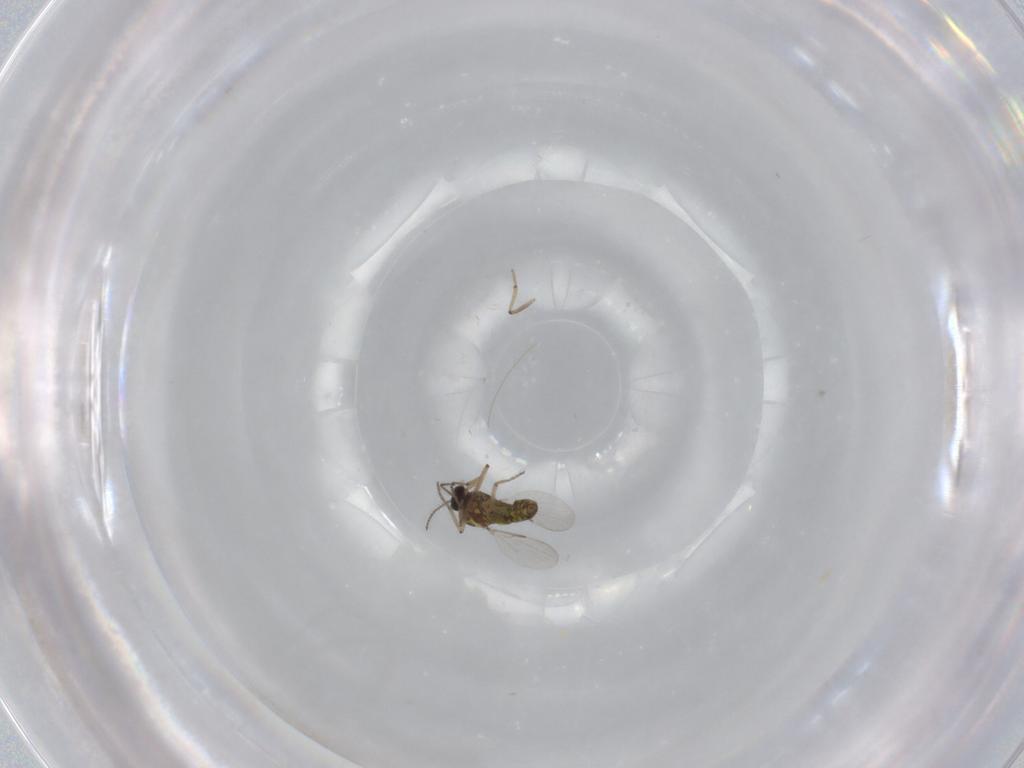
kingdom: Animalia
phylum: Arthropoda
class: Insecta
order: Diptera
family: Ceratopogonidae
